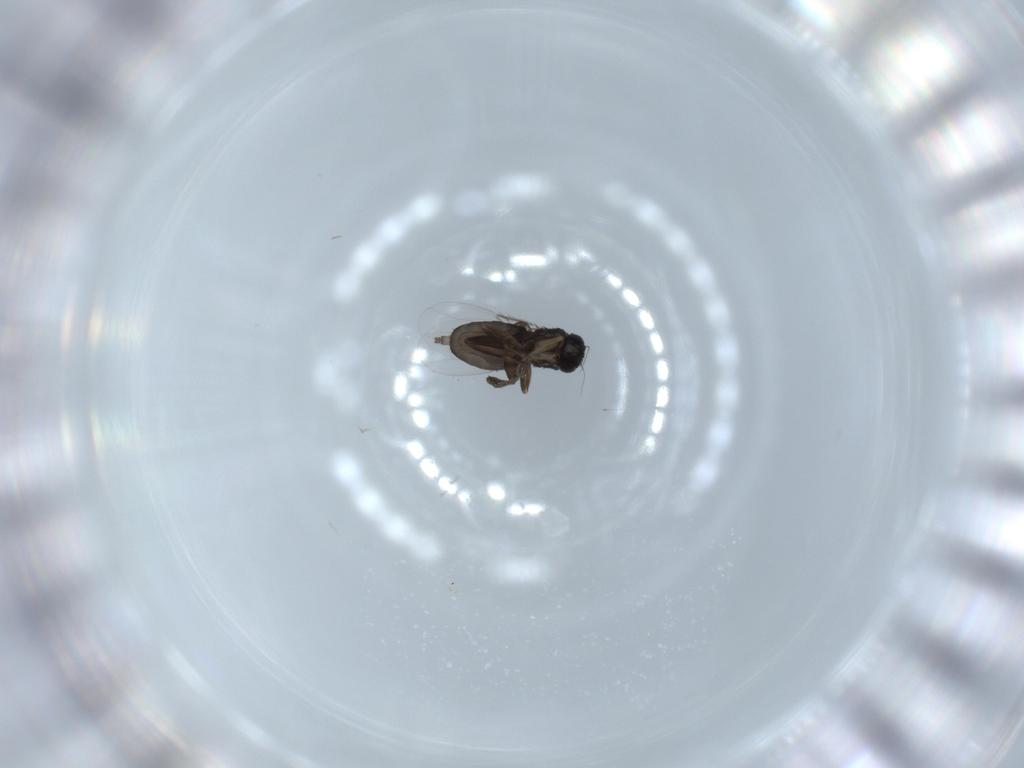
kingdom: Animalia
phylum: Arthropoda
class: Insecta
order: Diptera
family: Phoridae
